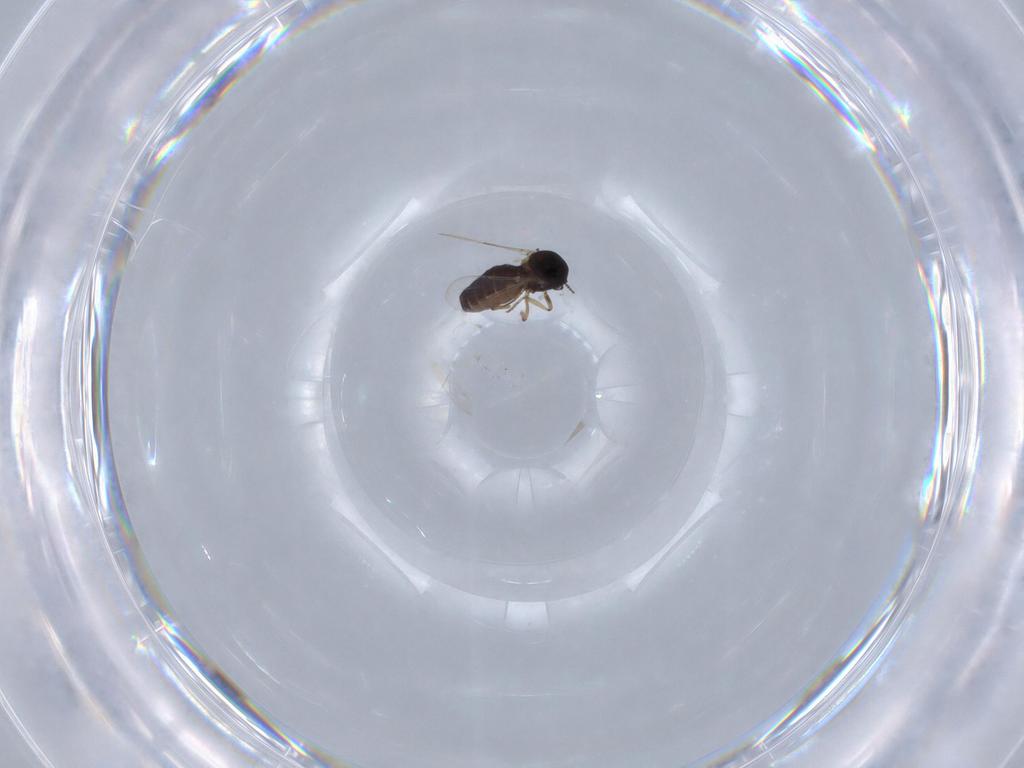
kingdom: Animalia
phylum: Arthropoda
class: Insecta
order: Diptera
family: Ceratopogonidae
